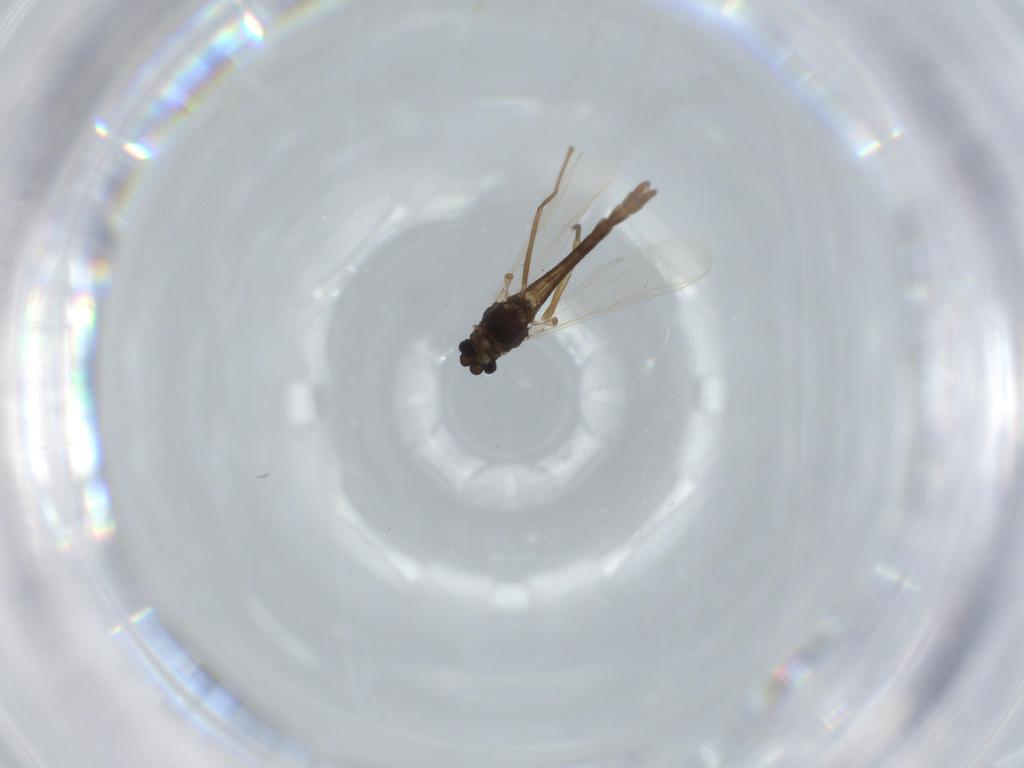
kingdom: Animalia
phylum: Arthropoda
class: Insecta
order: Diptera
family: Chironomidae
